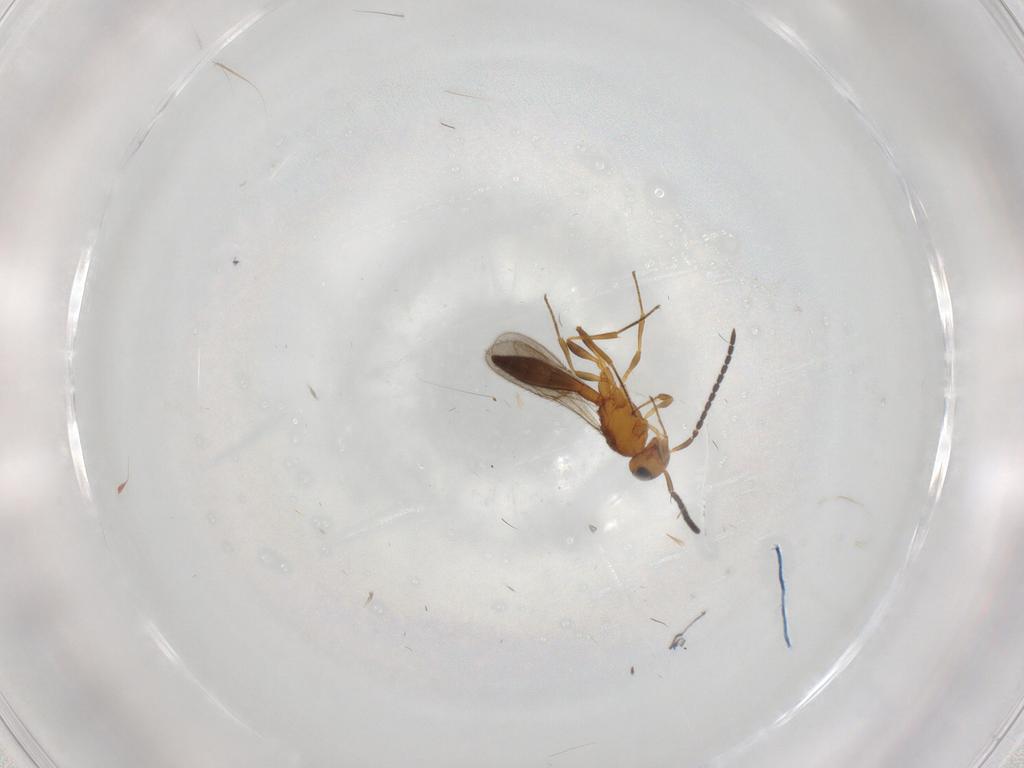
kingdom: Animalia
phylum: Arthropoda
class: Insecta
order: Hymenoptera
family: Scelionidae
